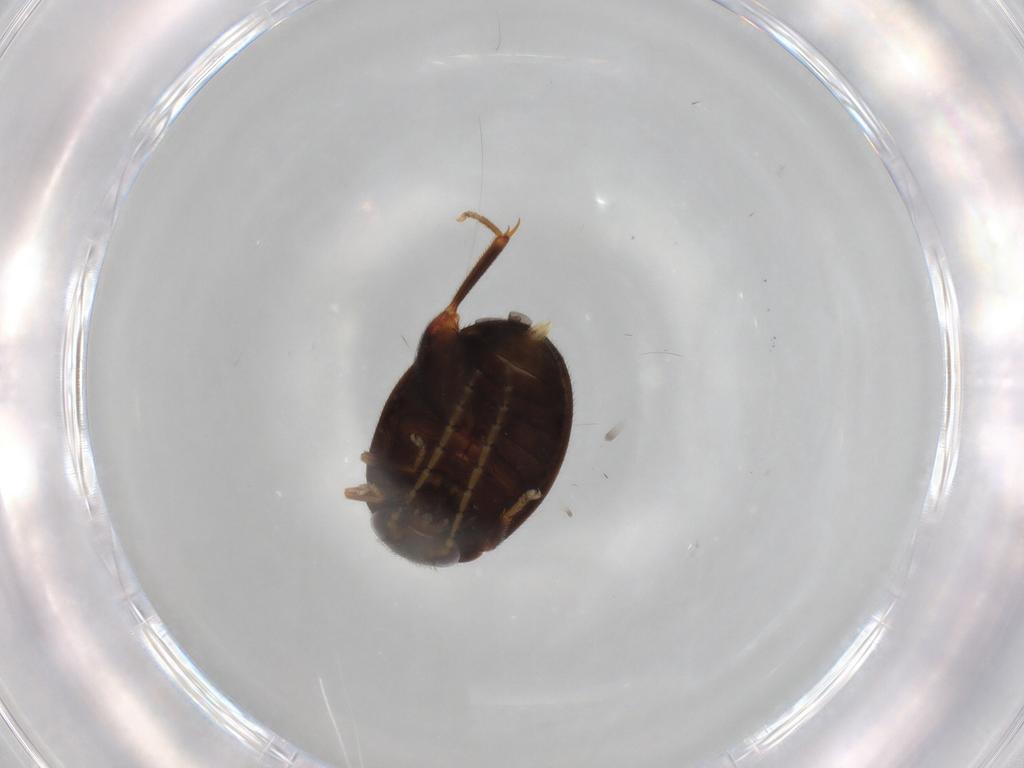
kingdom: Animalia
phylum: Arthropoda
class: Insecta
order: Coleoptera
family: Scirtidae
